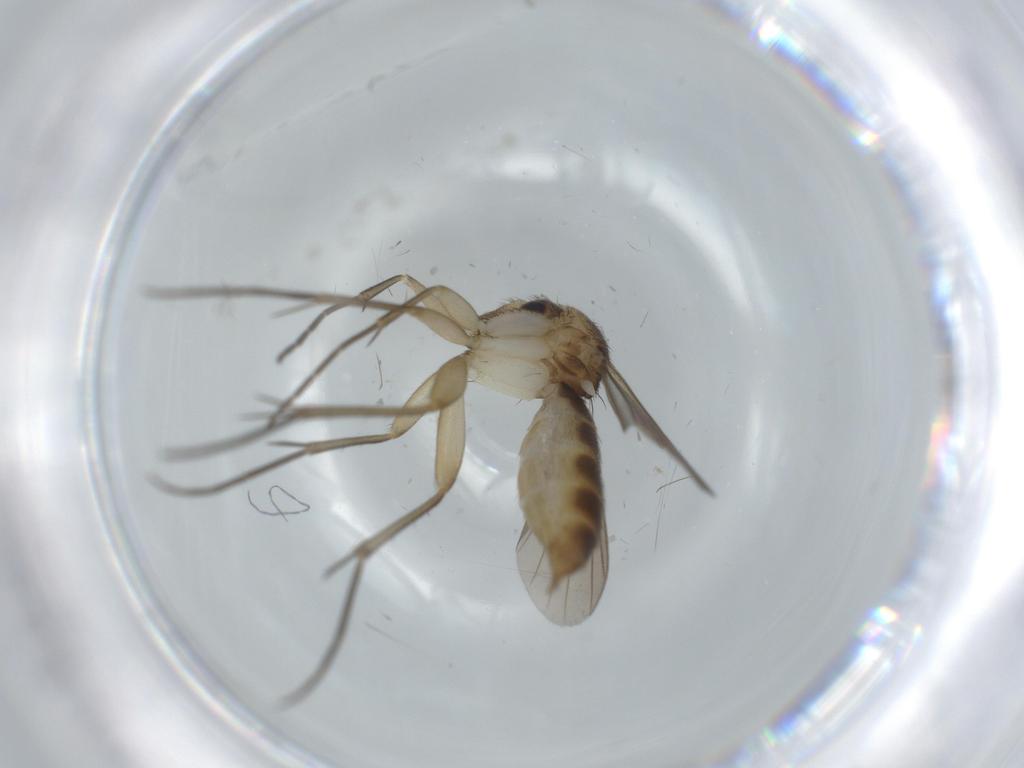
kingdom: Animalia
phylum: Arthropoda
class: Insecta
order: Diptera
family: Mycetophilidae
